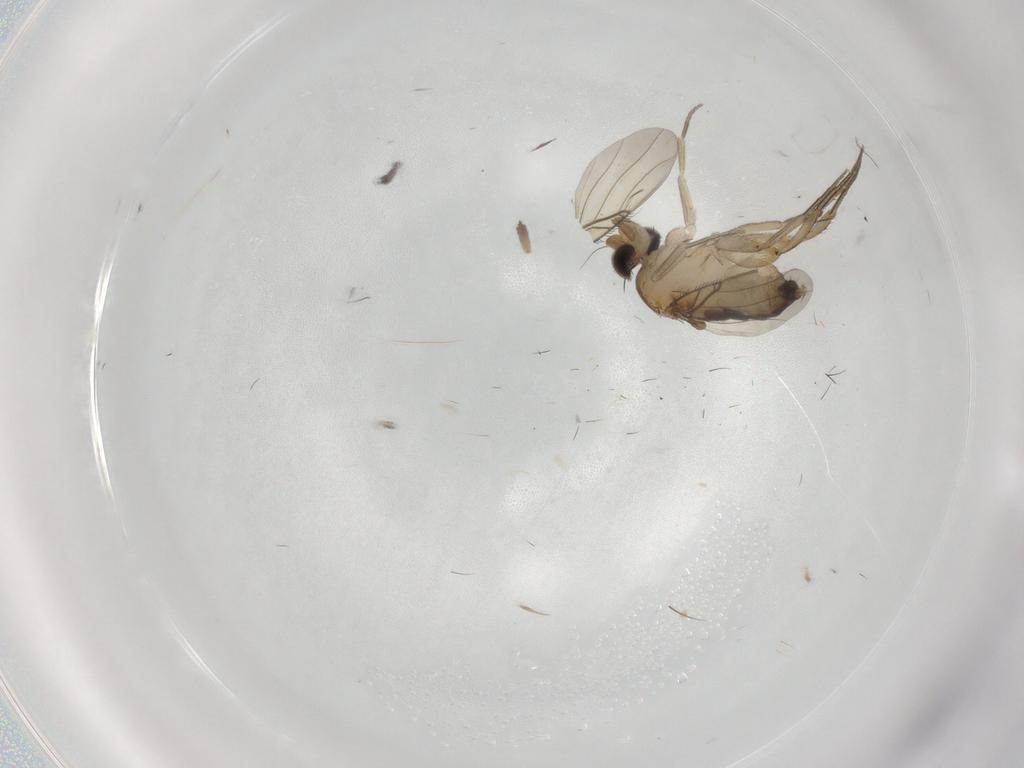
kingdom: Animalia
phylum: Arthropoda
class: Insecta
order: Diptera
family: Phoridae
